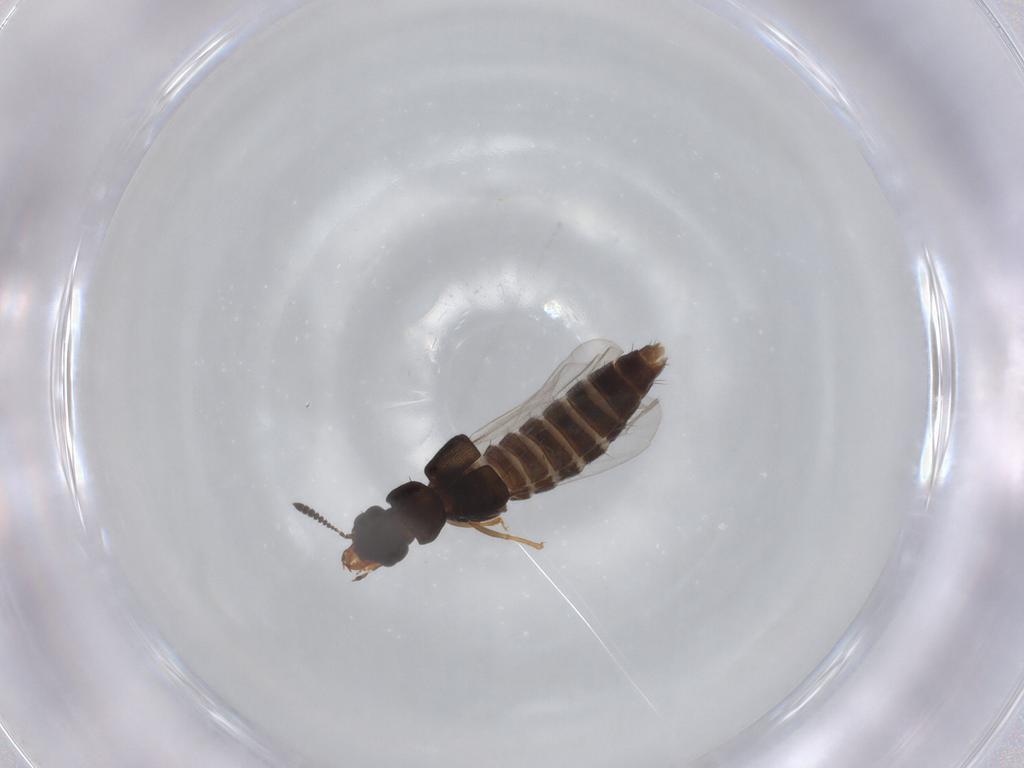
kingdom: Animalia
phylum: Arthropoda
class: Insecta
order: Coleoptera
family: Staphylinidae
